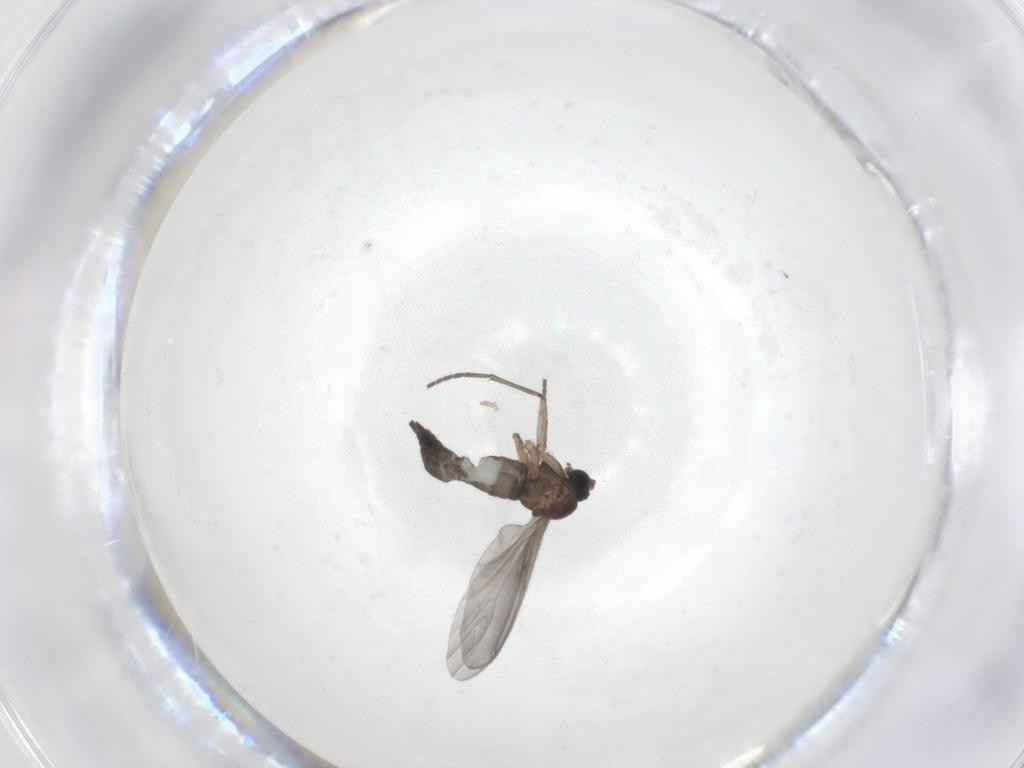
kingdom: Animalia
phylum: Arthropoda
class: Insecta
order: Diptera
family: Sciaridae
